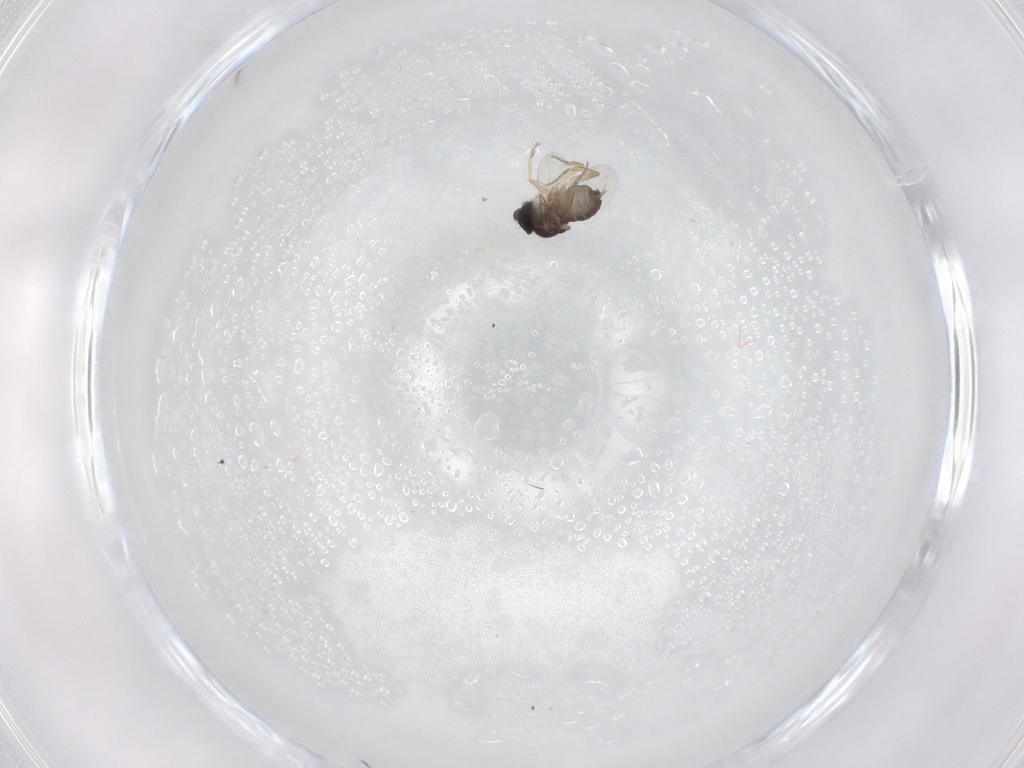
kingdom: Animalia
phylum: Arthropoda
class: Insecta
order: Diptera
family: Phoridae
